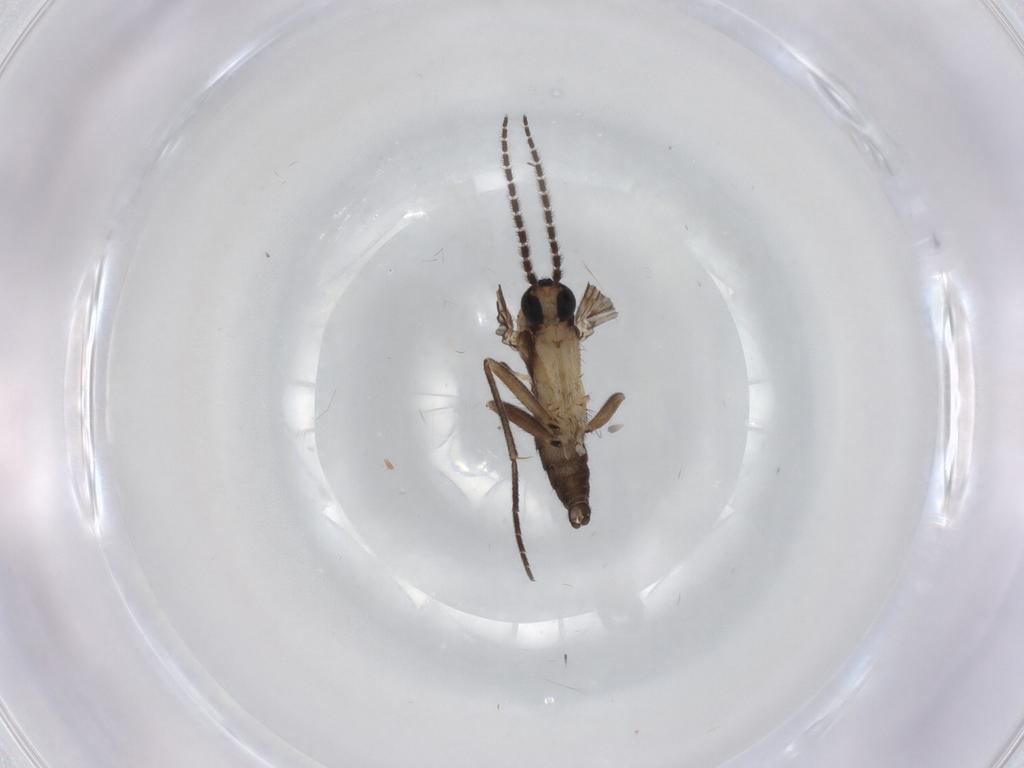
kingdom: Animalia
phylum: Arthropoda
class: Insecta
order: Diptera
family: Sciaridae
